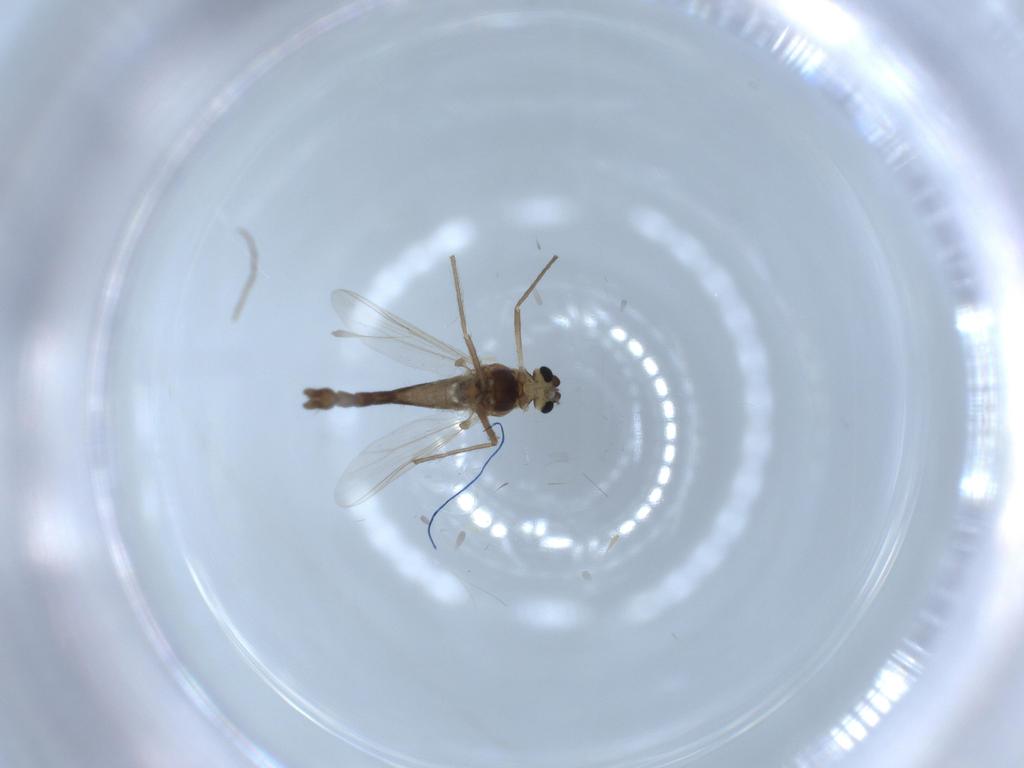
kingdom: Animalia
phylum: Arthropoda
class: Insecta
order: Diptera
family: Chironomidae
